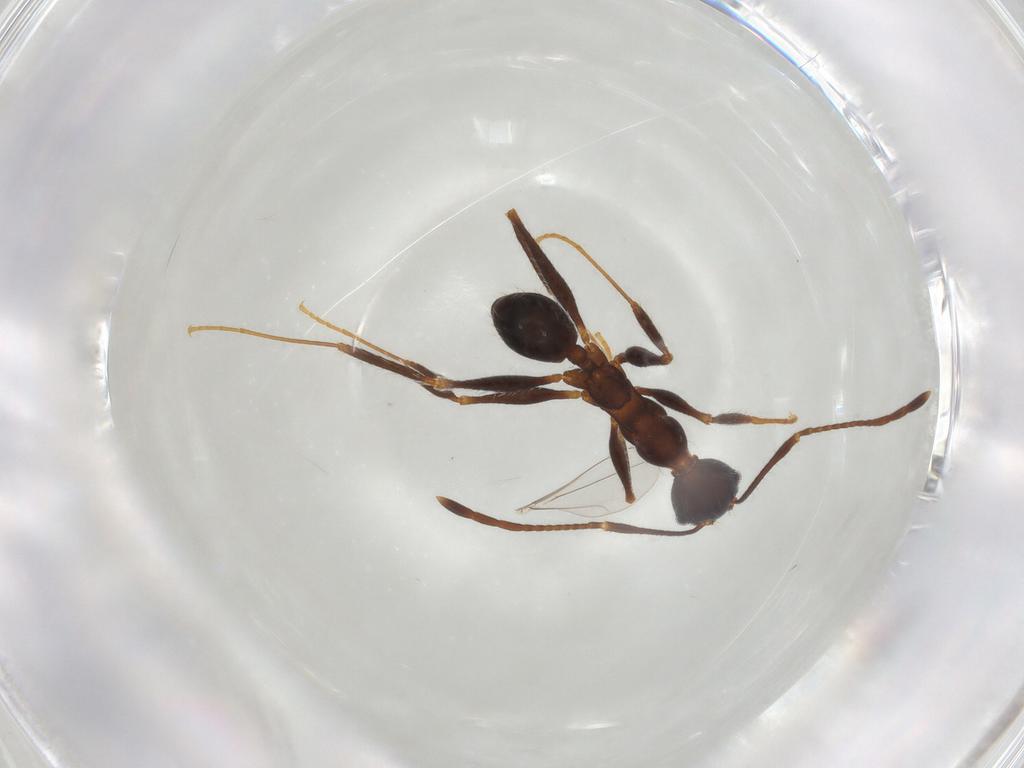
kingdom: Animalia
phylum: Arthropoda
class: Insecta
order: Hymenoptera
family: Formicidae
